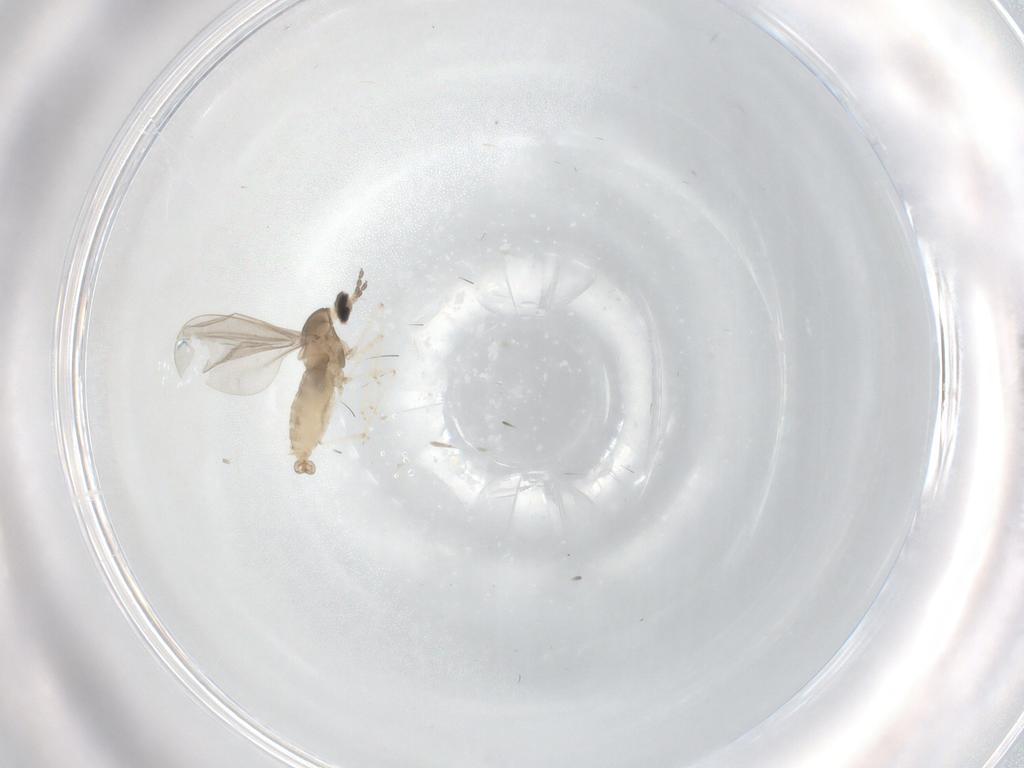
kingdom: Animalia
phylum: Arthropoda
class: Insecta
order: Diptera
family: Cecidomyiidae
